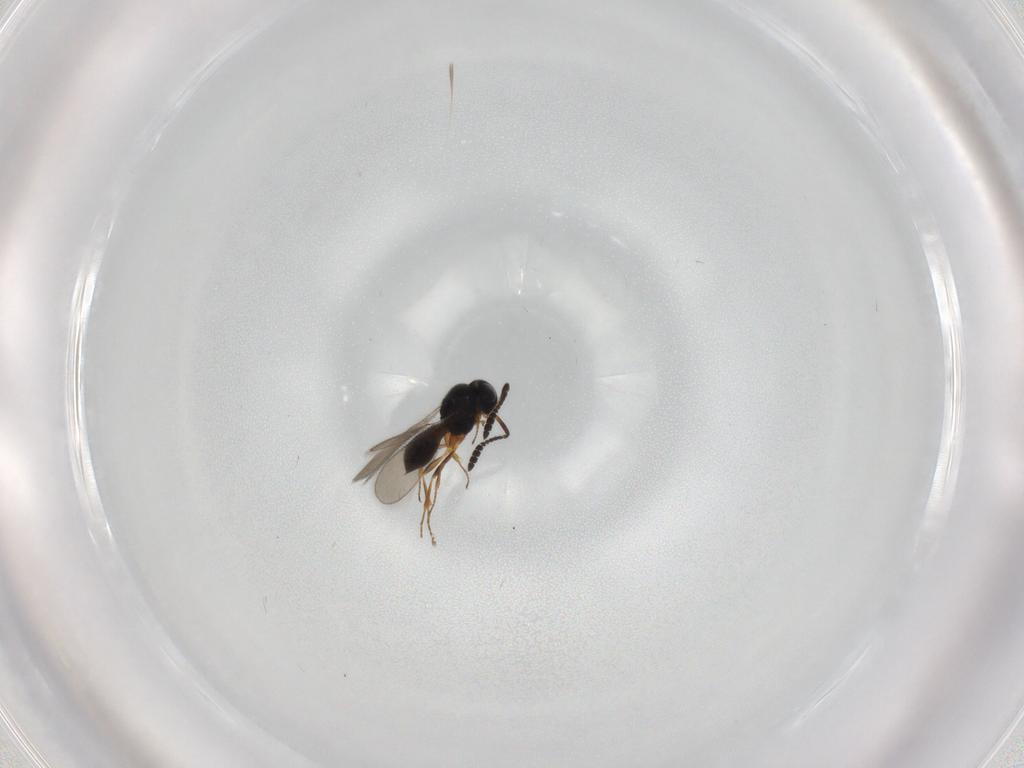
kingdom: Animalia
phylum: Arthropoda
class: Insecta
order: Hymenoptera
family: Scelionidae
